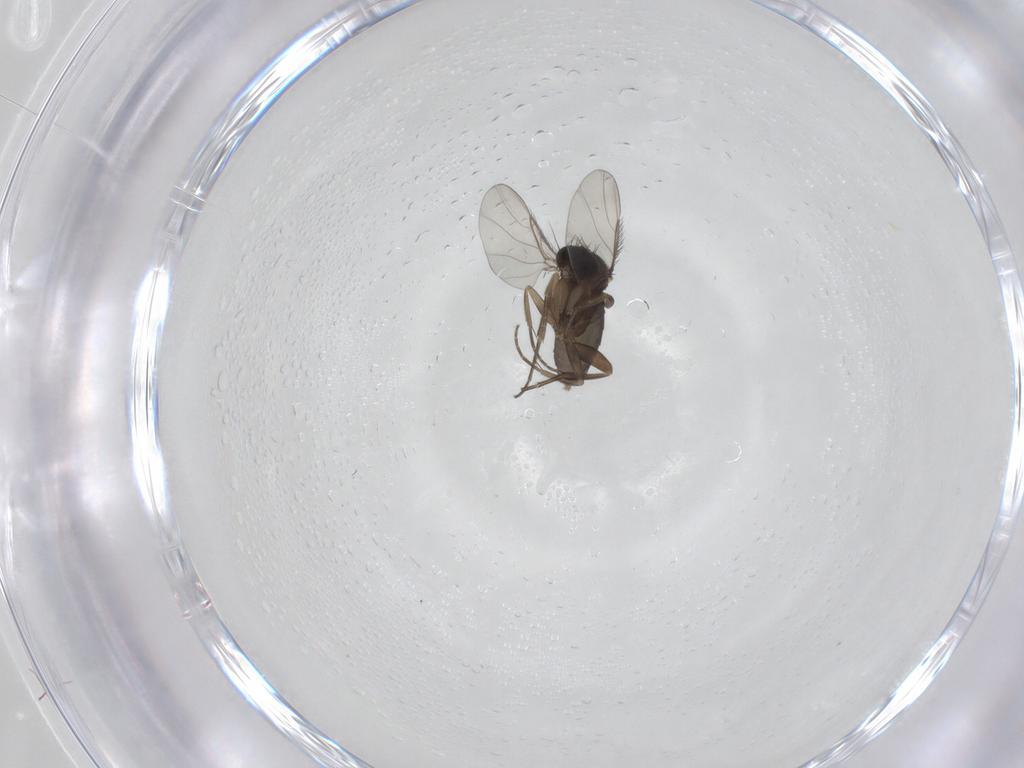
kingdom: Animalia
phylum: Arthropoda
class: Insecta
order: Diptera
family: Phoridae
